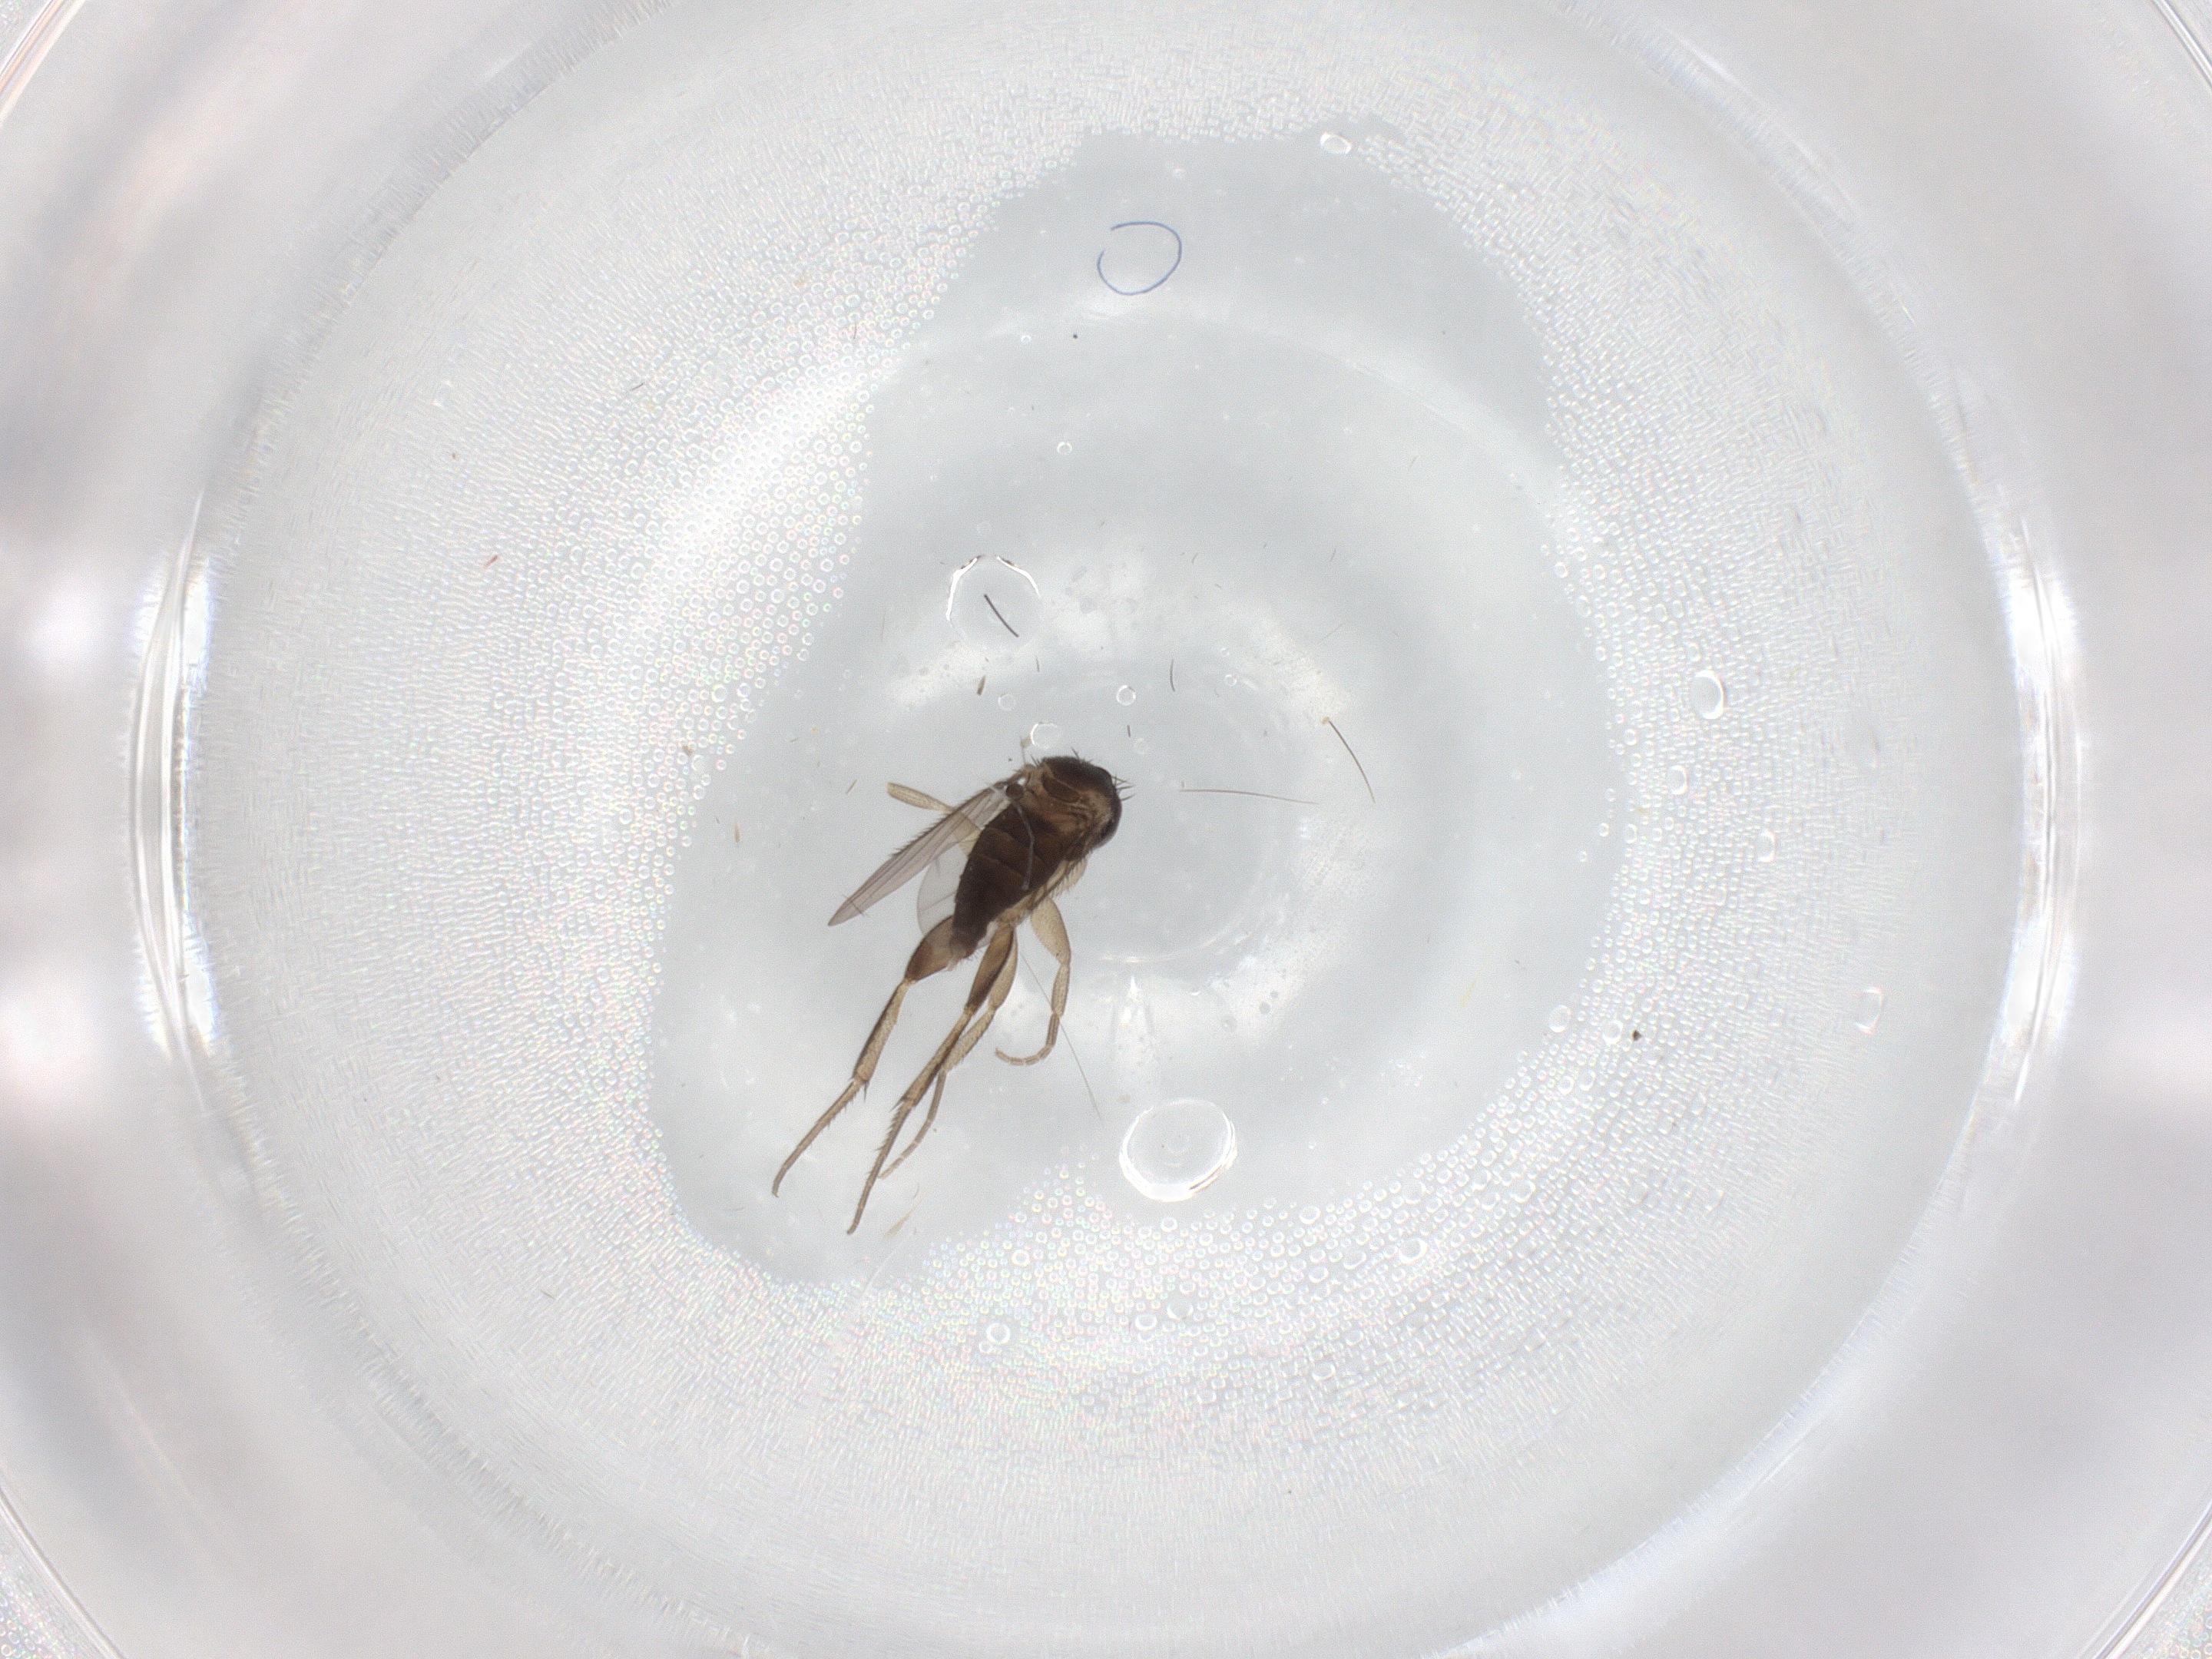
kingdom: Animalia
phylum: Arthropoda
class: Insecta
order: Diptera
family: Phoridae
